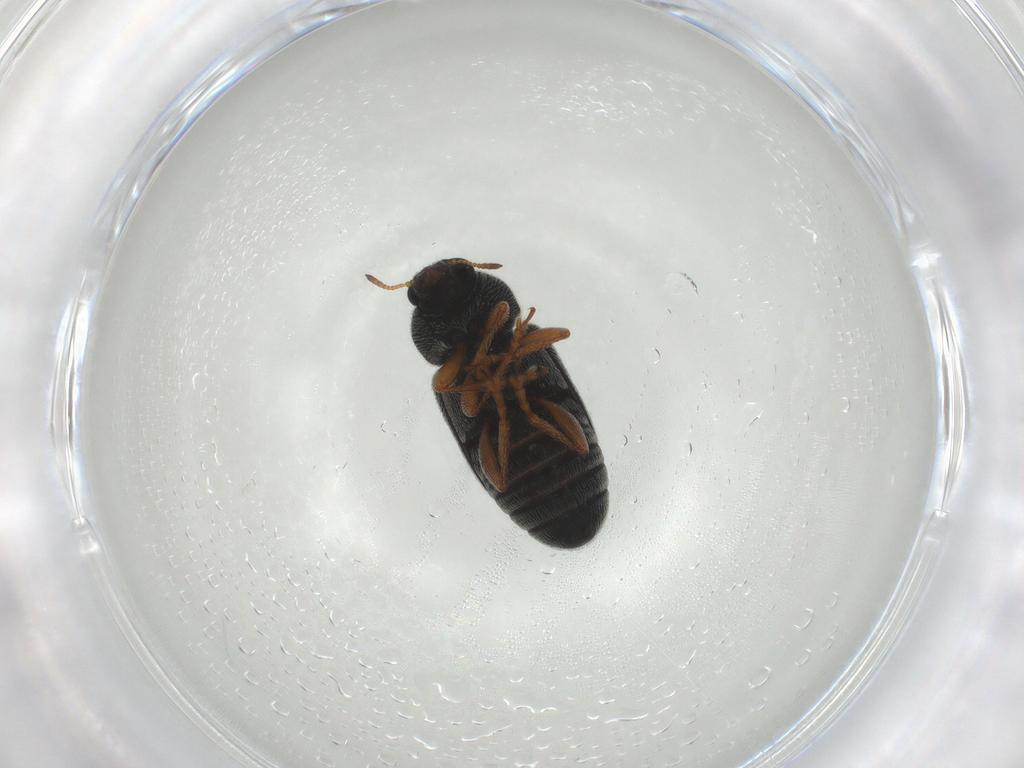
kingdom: Animalia
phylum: Arthropoda
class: Insecta
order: Coleoptera
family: Anthribidae
